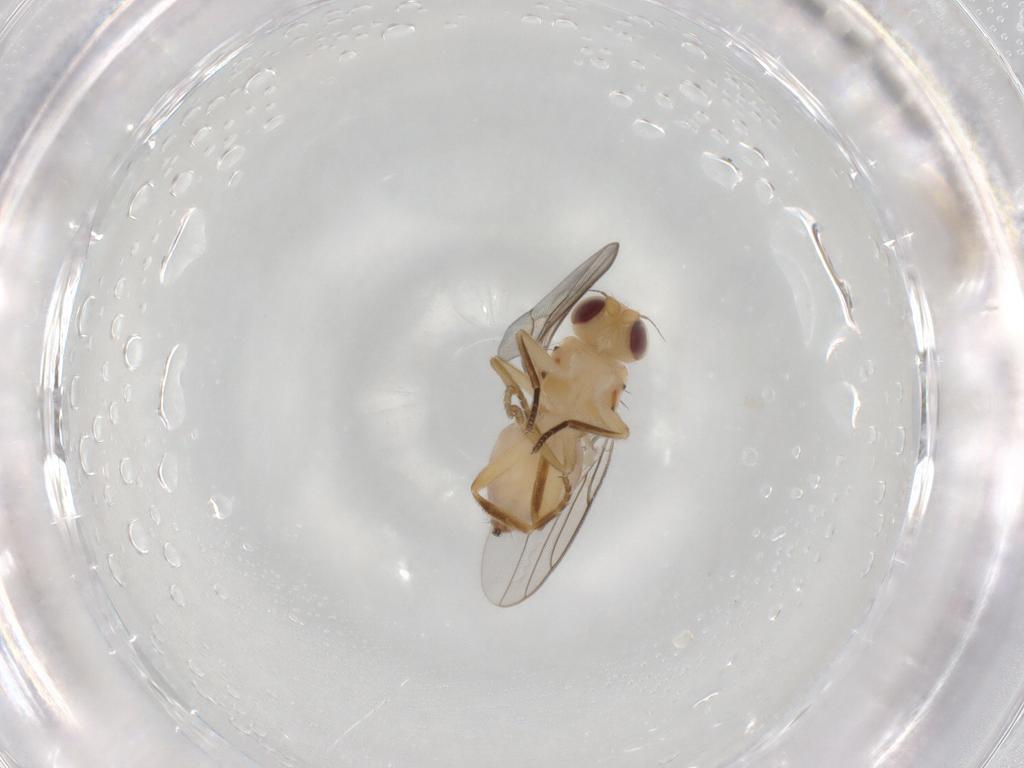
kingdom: Animalia
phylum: Arthropoda
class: Insecta
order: Diptera
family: Chloropidae
